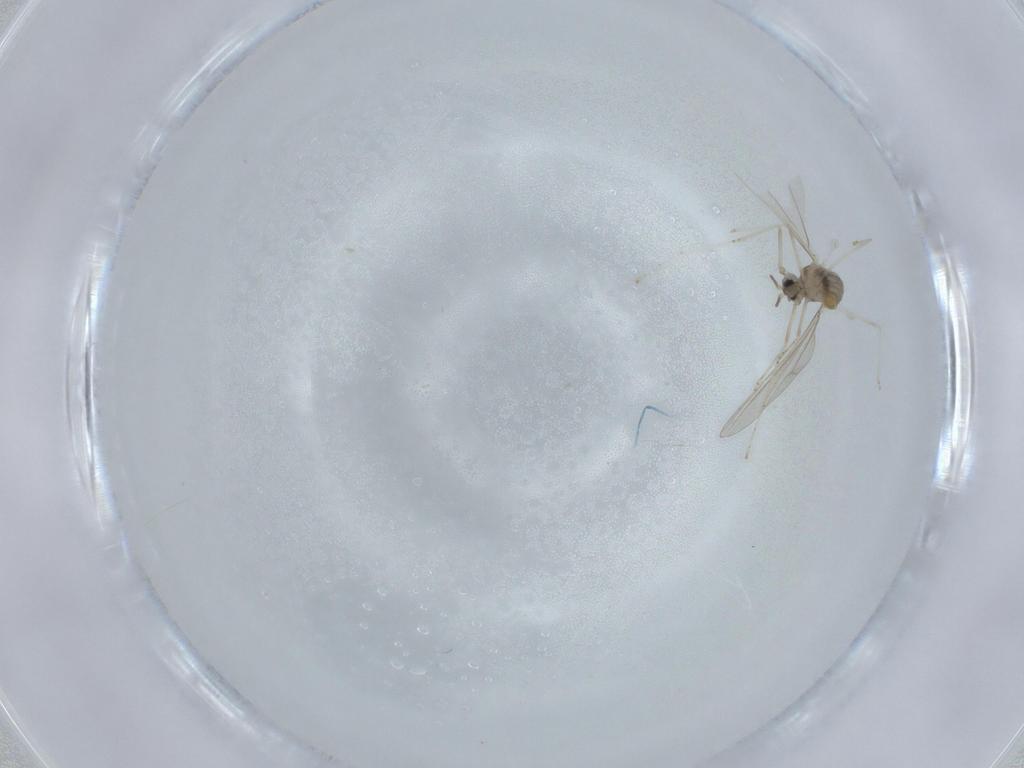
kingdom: Animalia
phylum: Arthropoda
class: Insecta
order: Diptera
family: Cecidomyiidae
